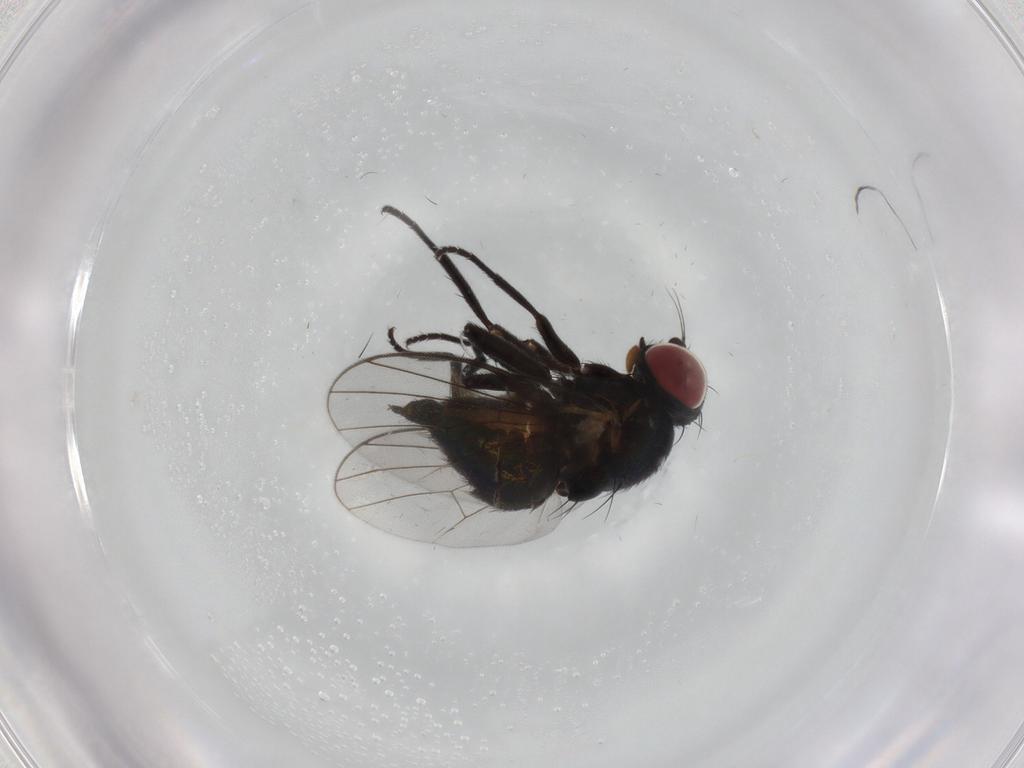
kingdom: Animalia
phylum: Arthropoda
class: Insecta
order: Diptera
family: Agromyzidae
